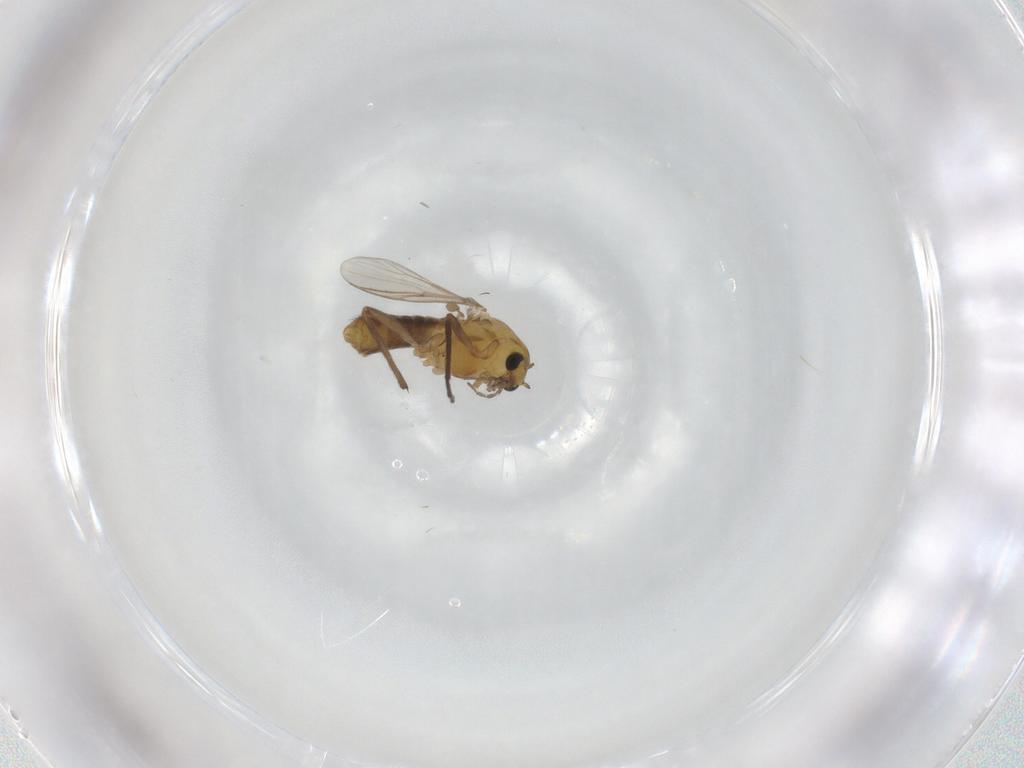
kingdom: Animalia
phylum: Arthropoda
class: Insecta
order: Diptera
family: Chironomidae
